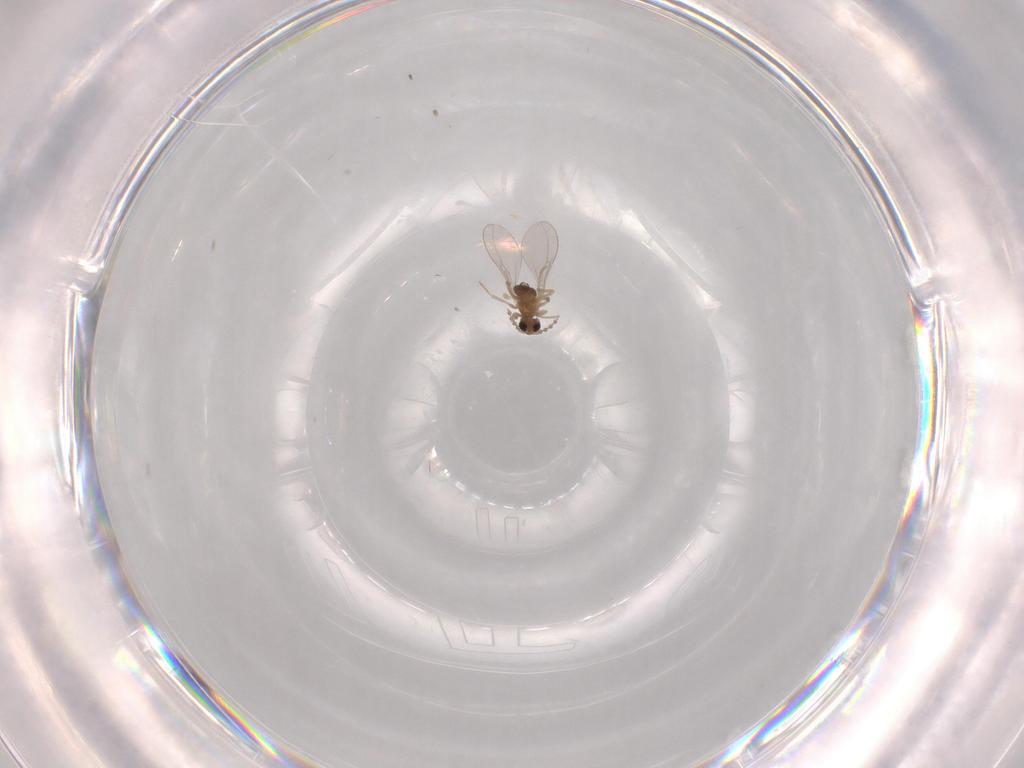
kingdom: Animalia
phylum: Arthropoda
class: Insecta
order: Diptera
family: Cecidomyiidae
